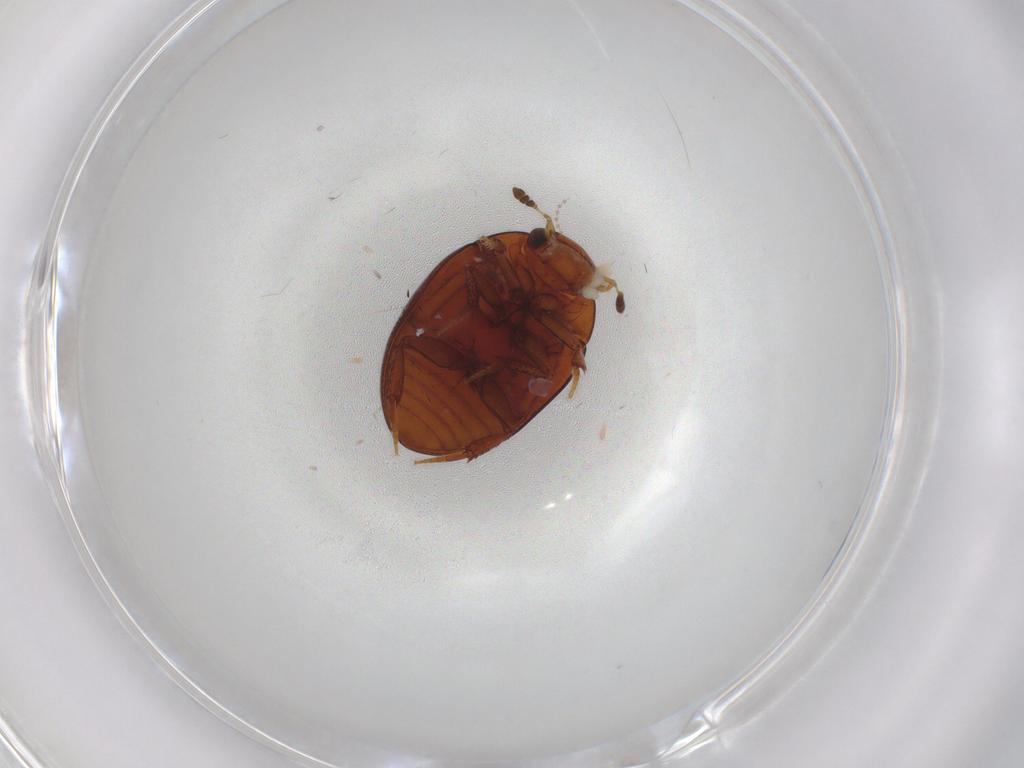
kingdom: Animalia
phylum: Arthropoda
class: Insecta
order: Coleoptera
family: Hydrophilidae
